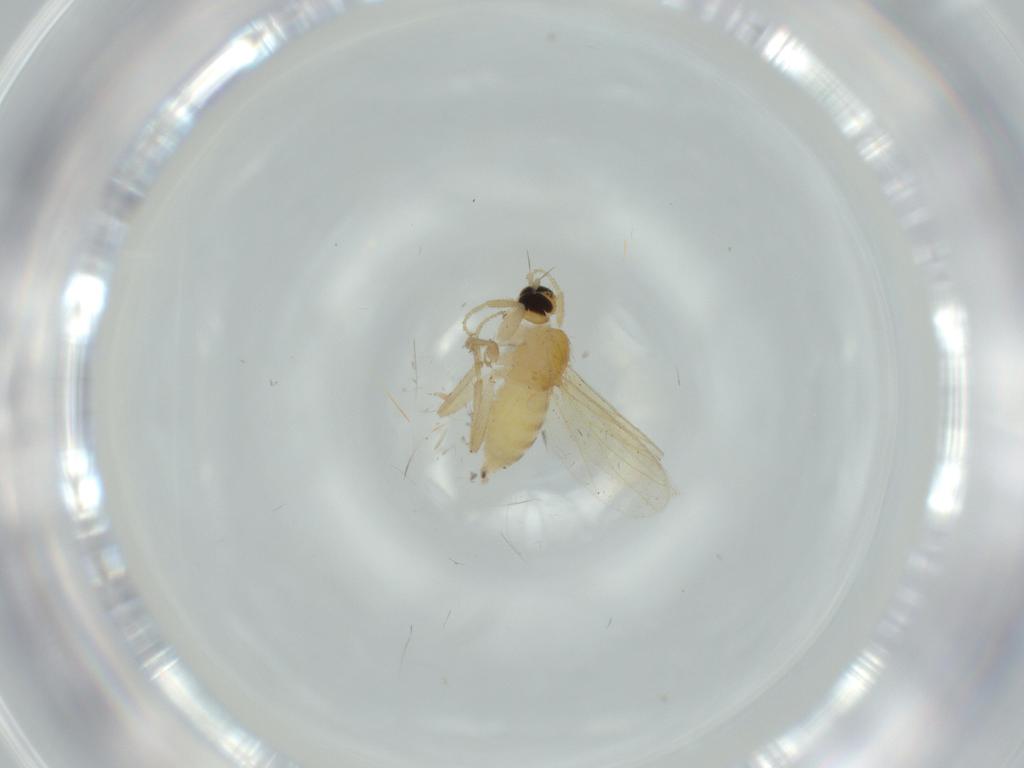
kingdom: Animalia
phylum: Arthropoda
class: Insecta
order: Diptera
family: Hybotidae
